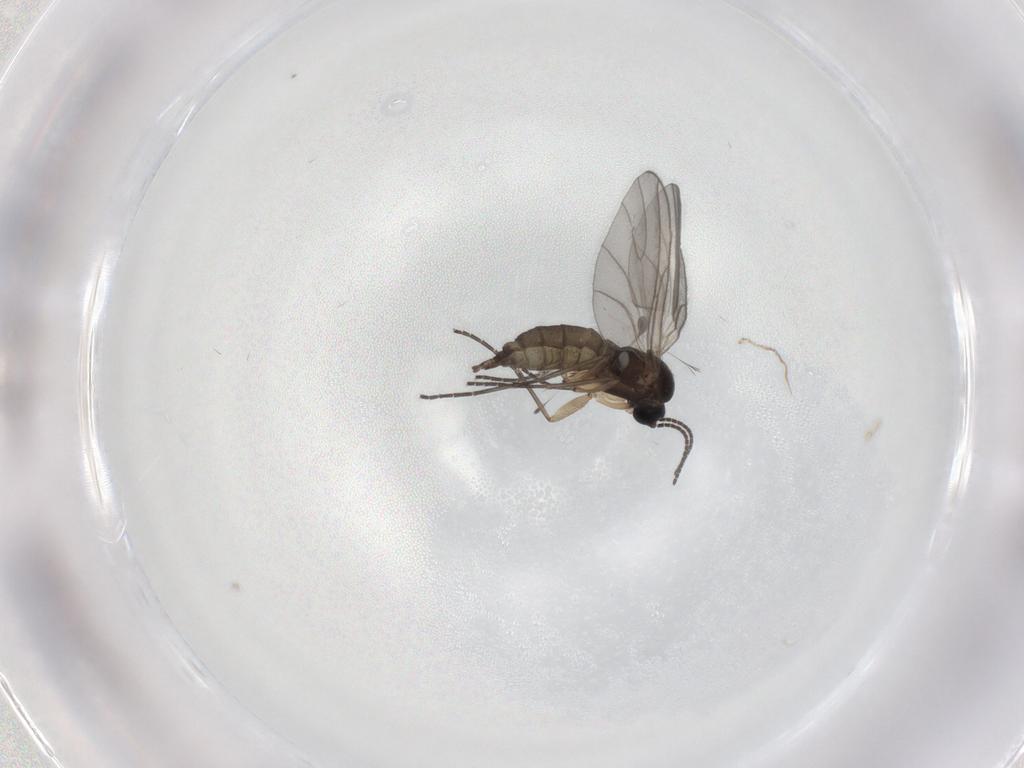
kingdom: Animalia
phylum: Arthropoda
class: Insecta
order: Diptera
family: Sciaridae
